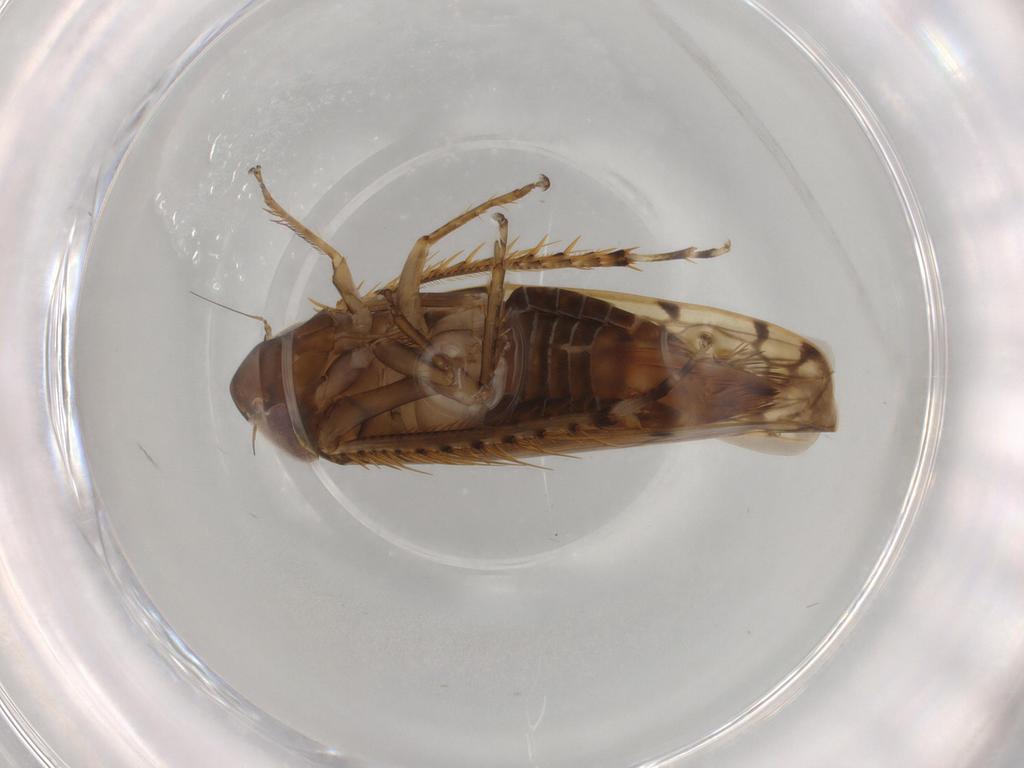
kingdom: Animalia
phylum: Arthropoda
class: Insecta
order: Hemiptera
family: Cicadellidae
